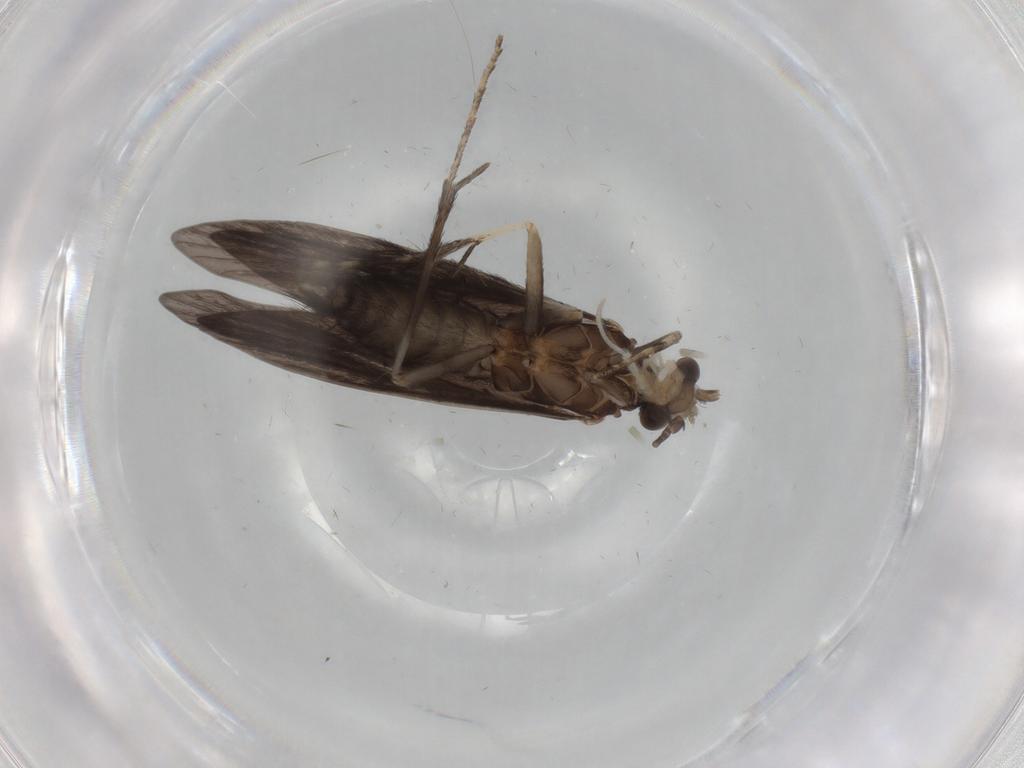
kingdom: Animalia
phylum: Arthropoda
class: Insecta
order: Trichoptera
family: Xiphocentronidae
